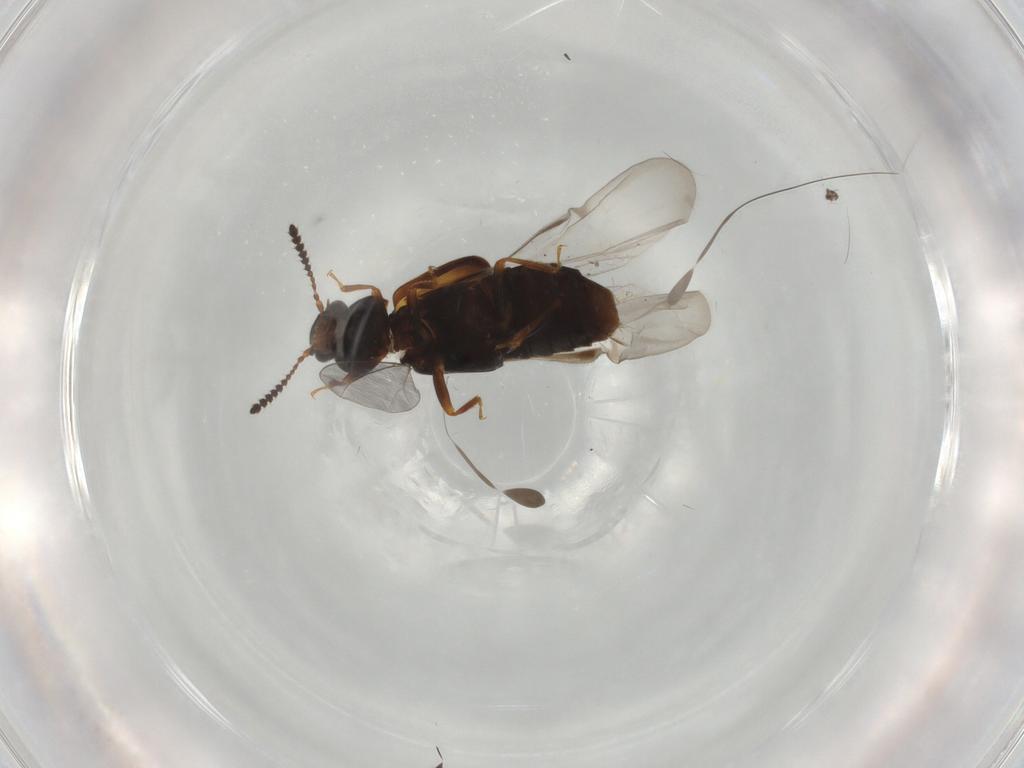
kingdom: Animalia
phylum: Arthropoda
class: Insecta
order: Coleoptera
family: Staphylinidae
